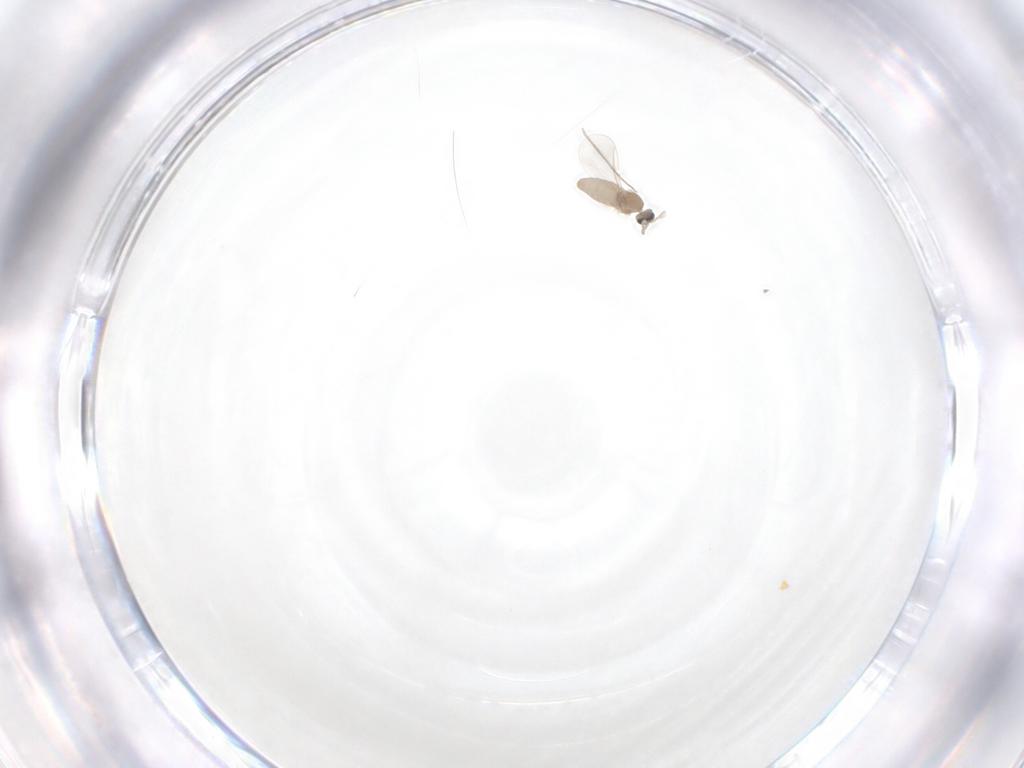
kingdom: Animalia
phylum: Arthropoda
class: Insecta
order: Diptera
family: Cecidomyiidae
